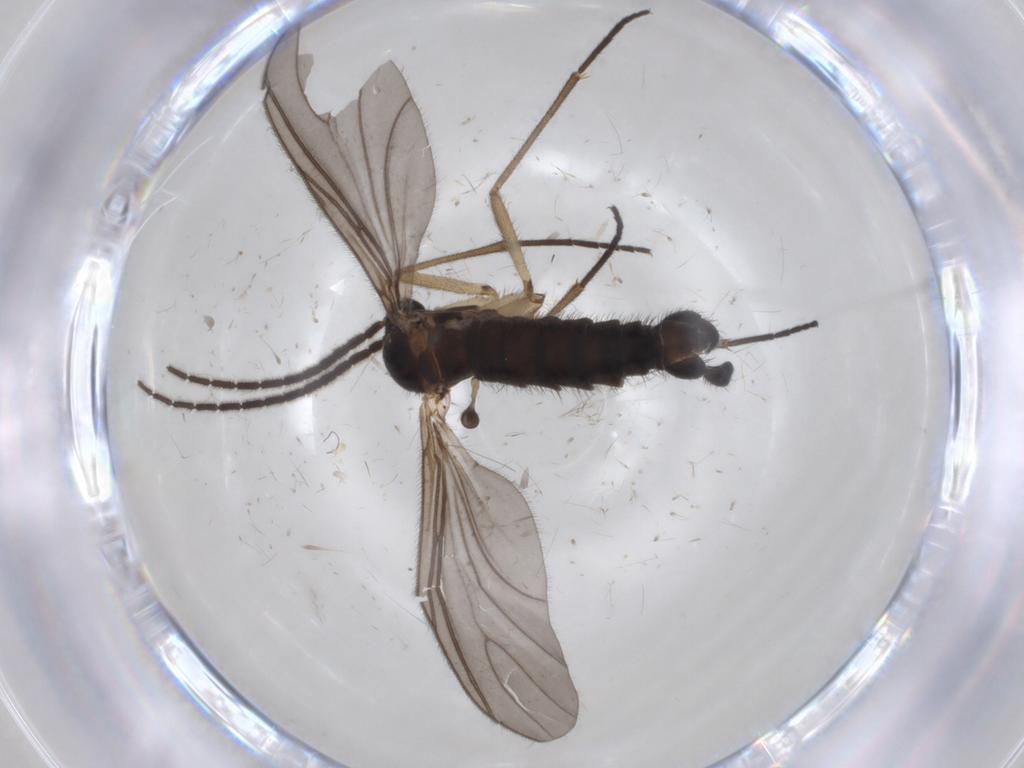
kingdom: Animalia
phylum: Arthropoda
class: Insecta
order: Diptera
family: Sciaridae
